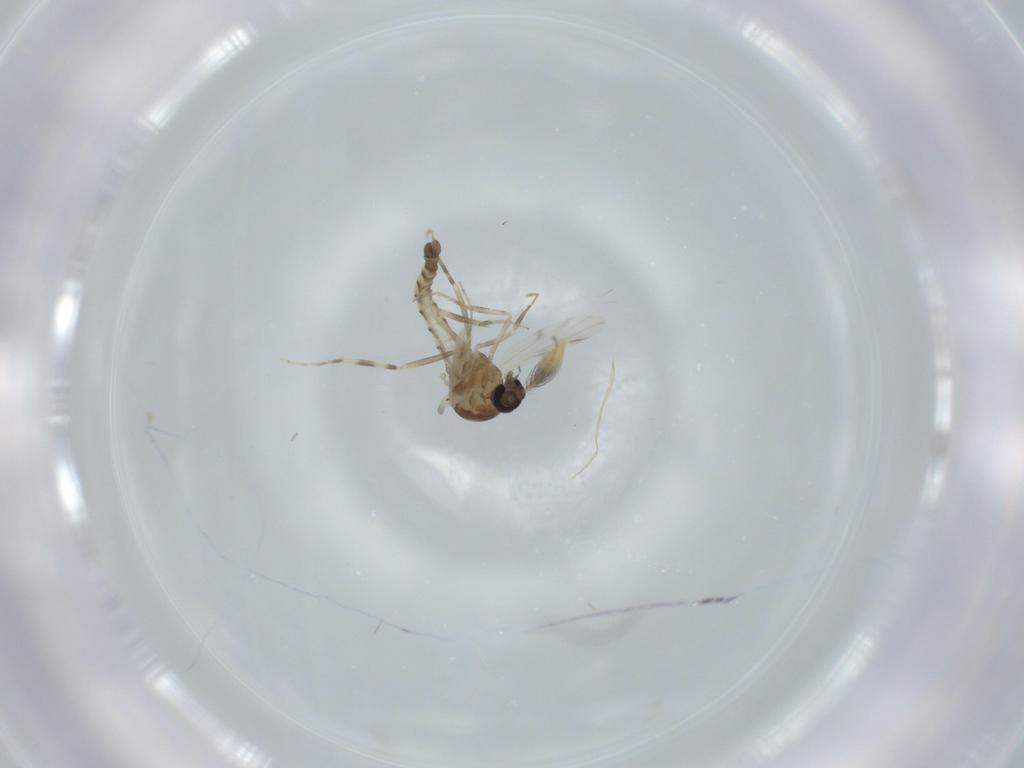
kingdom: Animalia
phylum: Arthropoda
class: Insecta
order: Diptera
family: Ceratopogonidae
